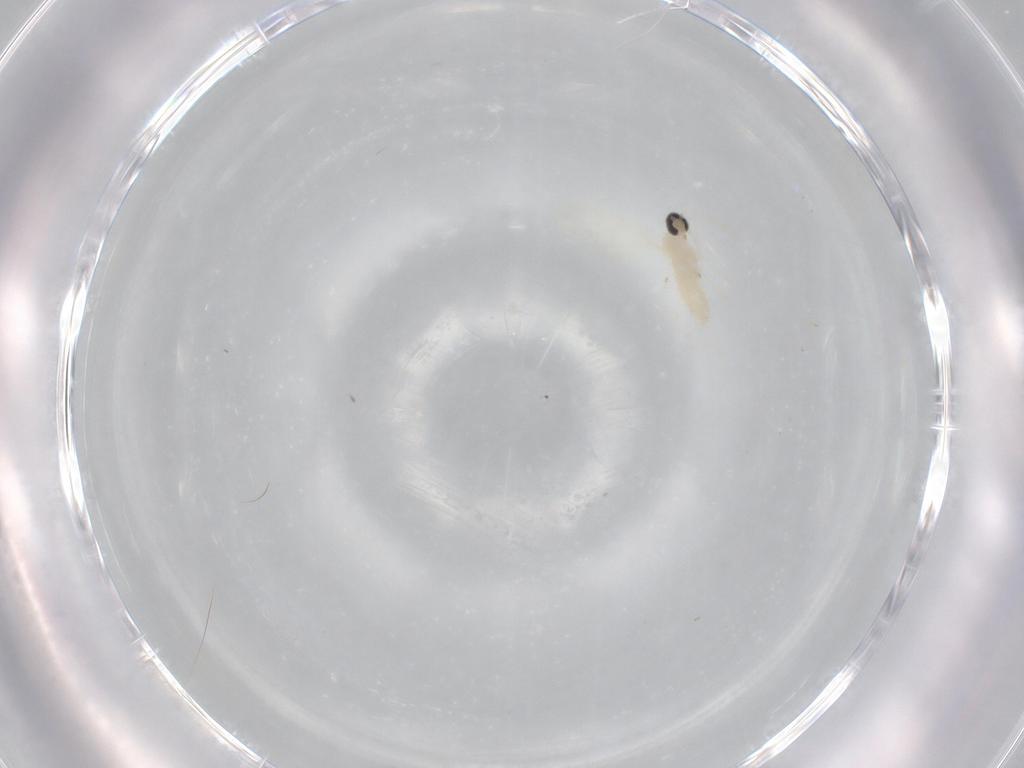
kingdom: Animalia
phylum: Arthropoda
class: Insecta
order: Diptera
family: Cecidomyiidae
